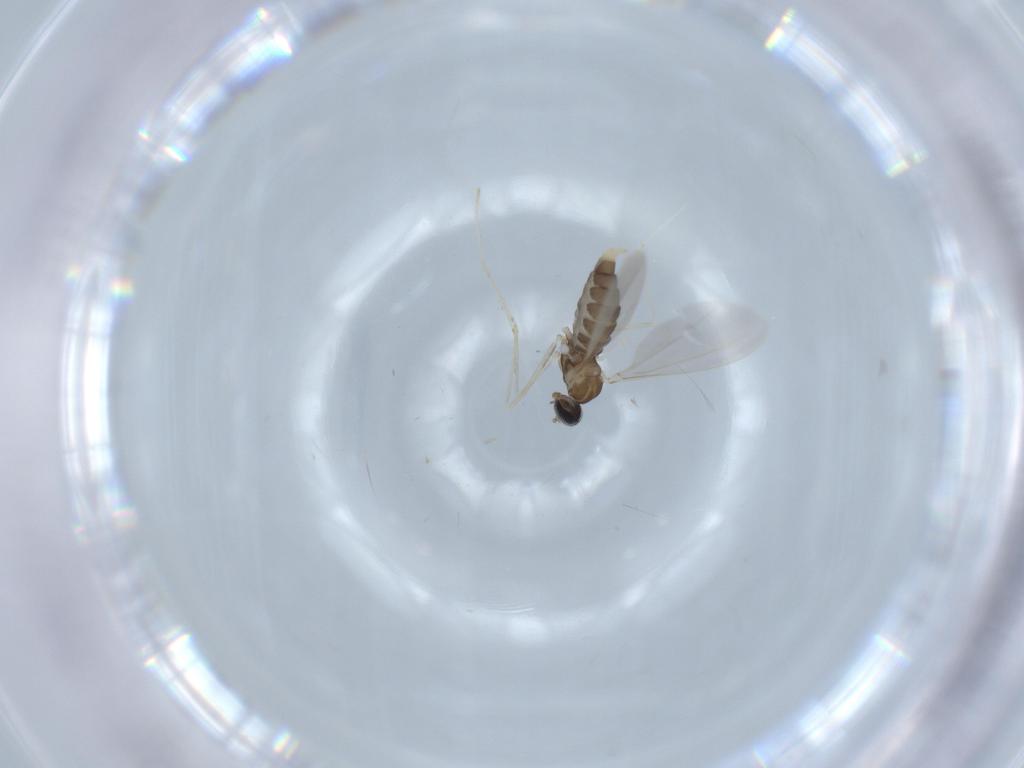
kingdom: Animalia
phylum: Arthropoda
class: Insecta
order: Diptera
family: Cecidomyiidae
